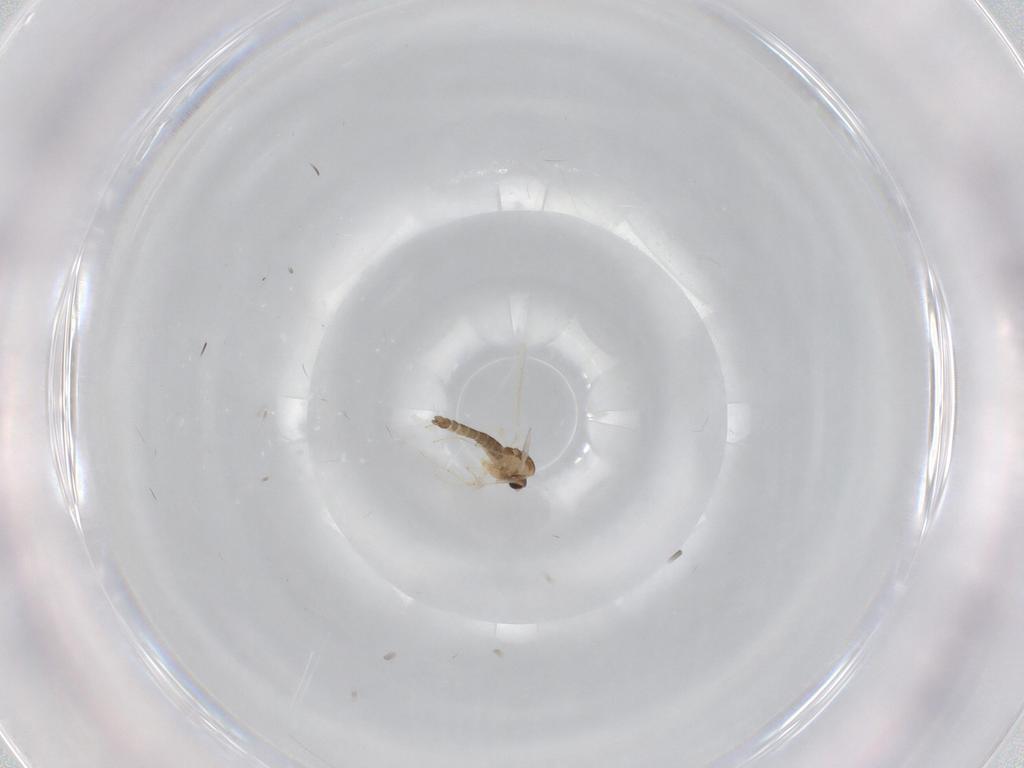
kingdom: Animalia
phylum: Arthropoda
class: Insecta
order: Diptera
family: Chironomidae
